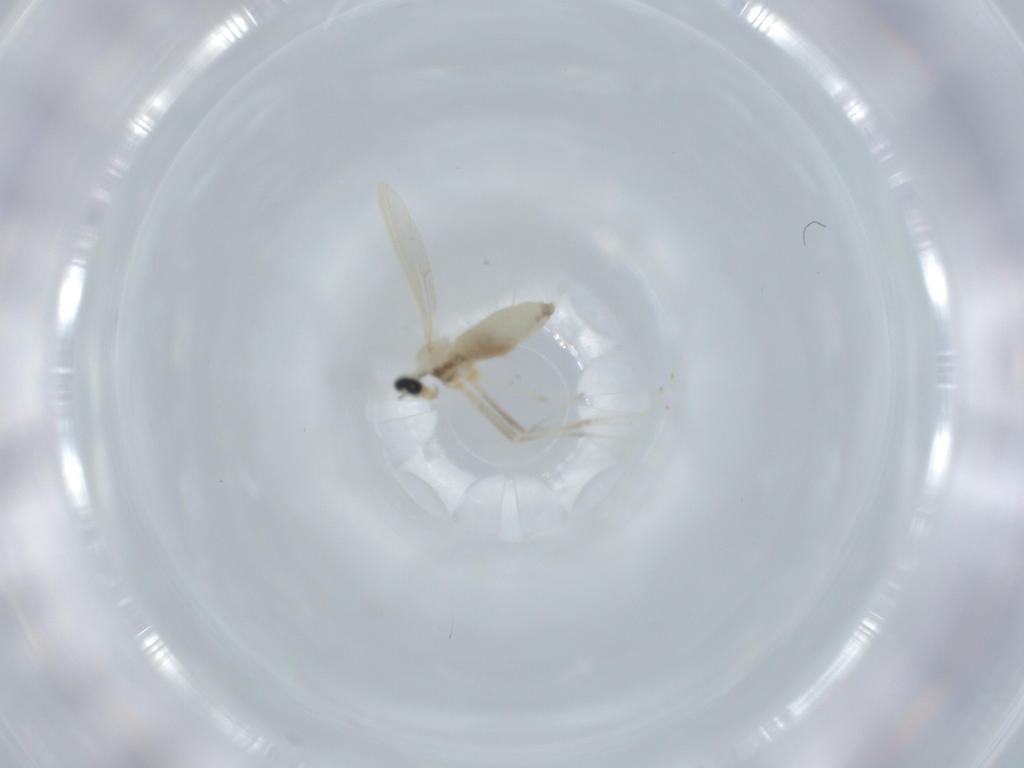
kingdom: Animalia
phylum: Arthropoda
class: Insecta
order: Diptera
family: Cecidomyiidae
